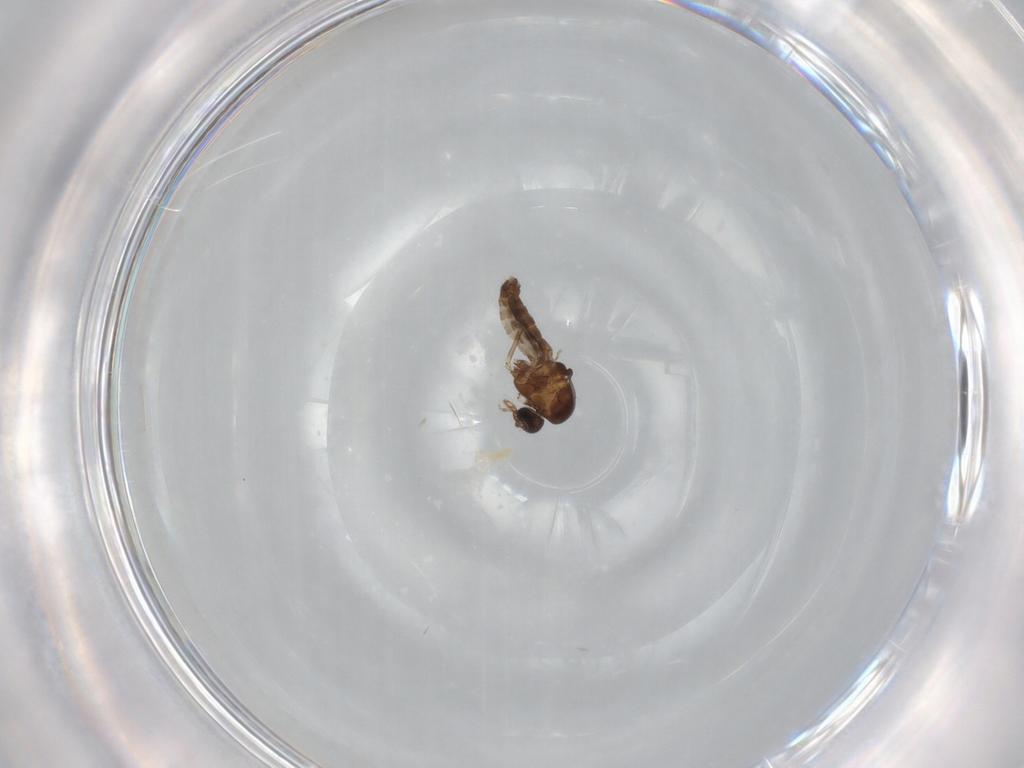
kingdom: Animalia
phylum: Arthropoda
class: Insecta
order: Diptera
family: Ceratopogonidae
